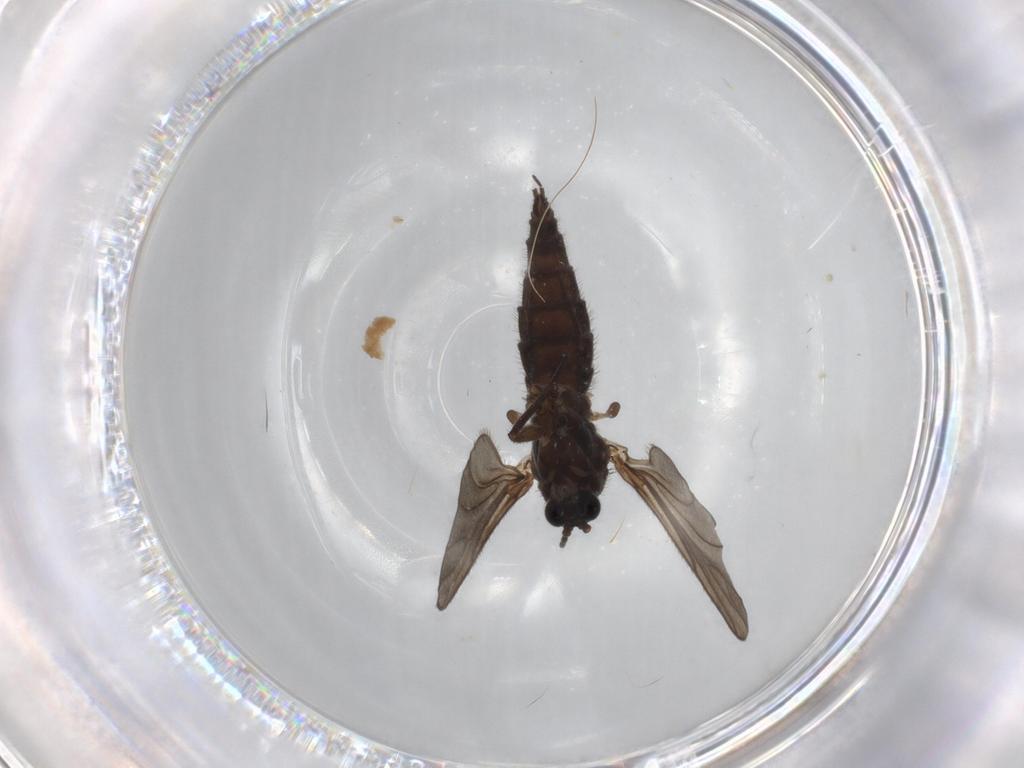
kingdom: Animalia
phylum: Arthropoda
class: Insecta
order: Diptera
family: Sciaridae
